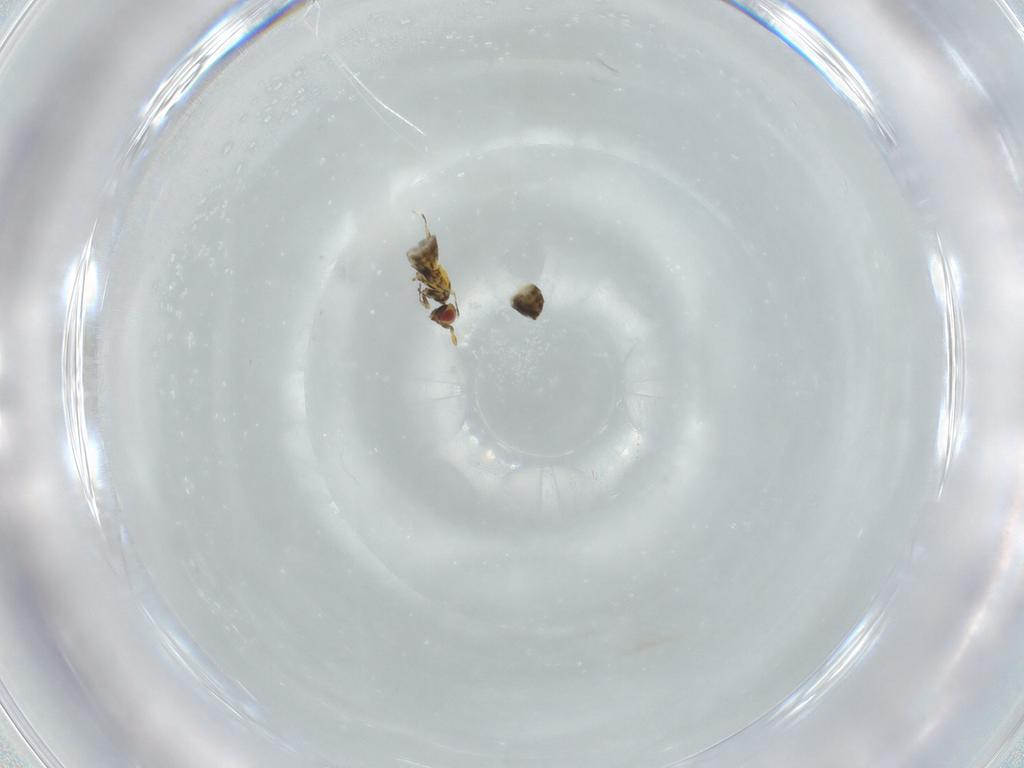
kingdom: Animalia
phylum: Arthropoda
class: Insecta
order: Hymenoptera
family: Trichogrammatidae
